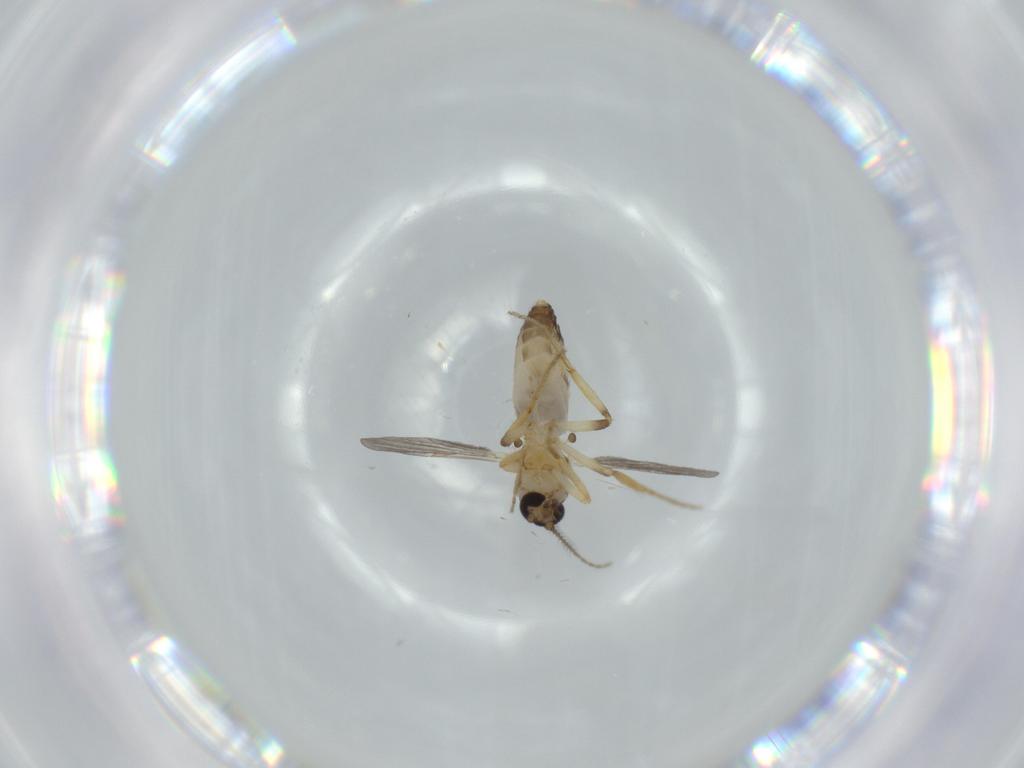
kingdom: Animalia
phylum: Arthropoda
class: Insecta
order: Diptera
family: Ceratopogonidae
